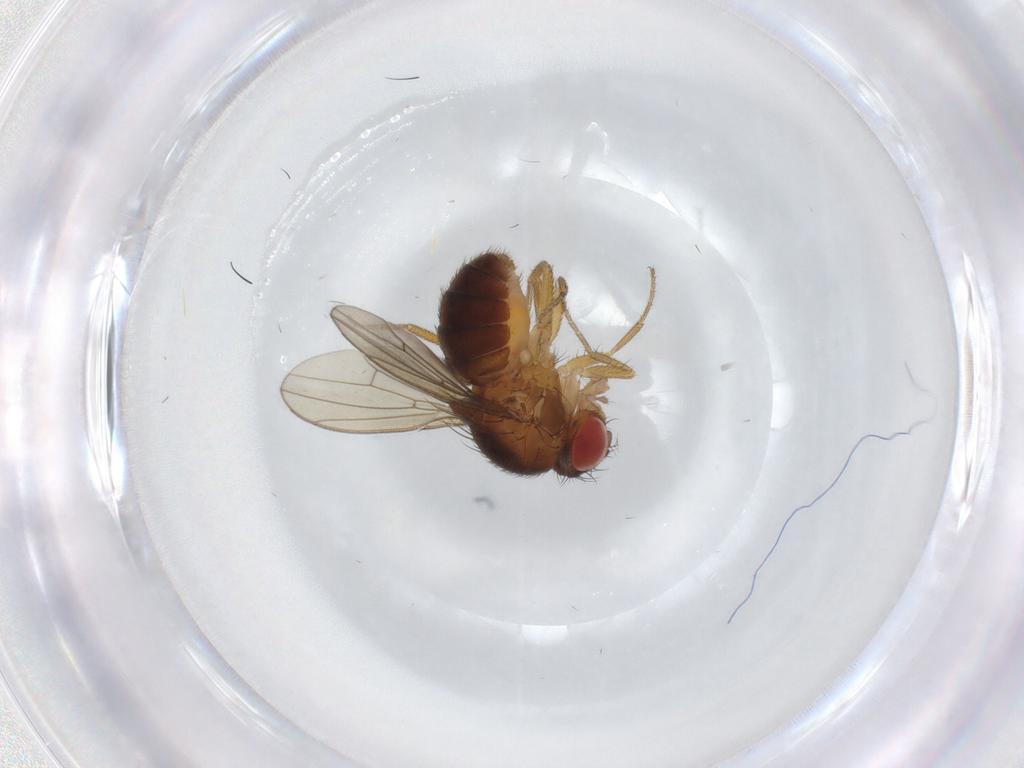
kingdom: Animalia
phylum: Arthropoda
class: Insecta
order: Diptera
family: Drosophilidae
